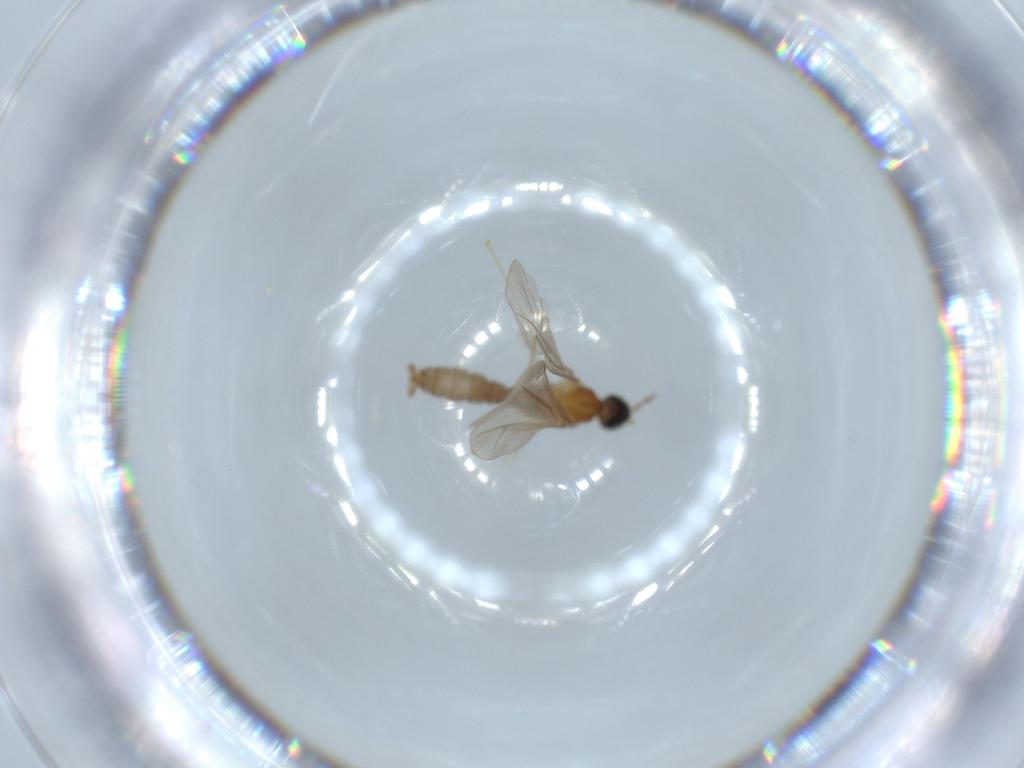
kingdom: Animalia
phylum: Arthropoda
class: Insecta
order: Diptera
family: Cecidomyiidae
